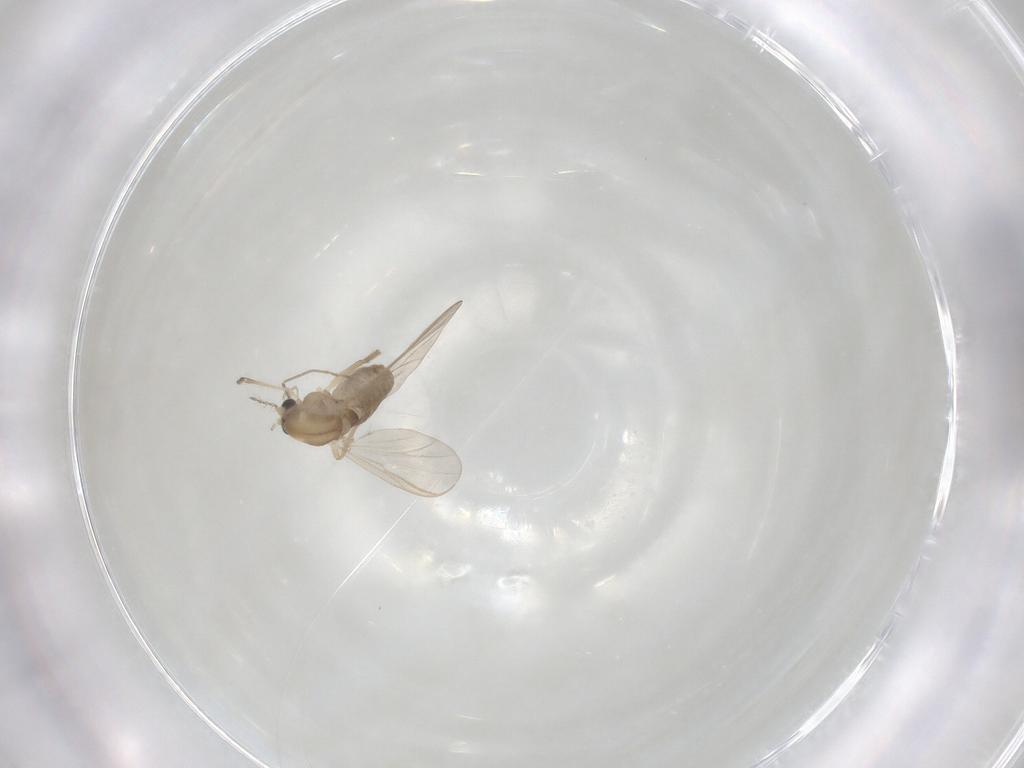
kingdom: Animalia
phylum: Arthropoda
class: Insecta
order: Diptera
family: Chironomidae
